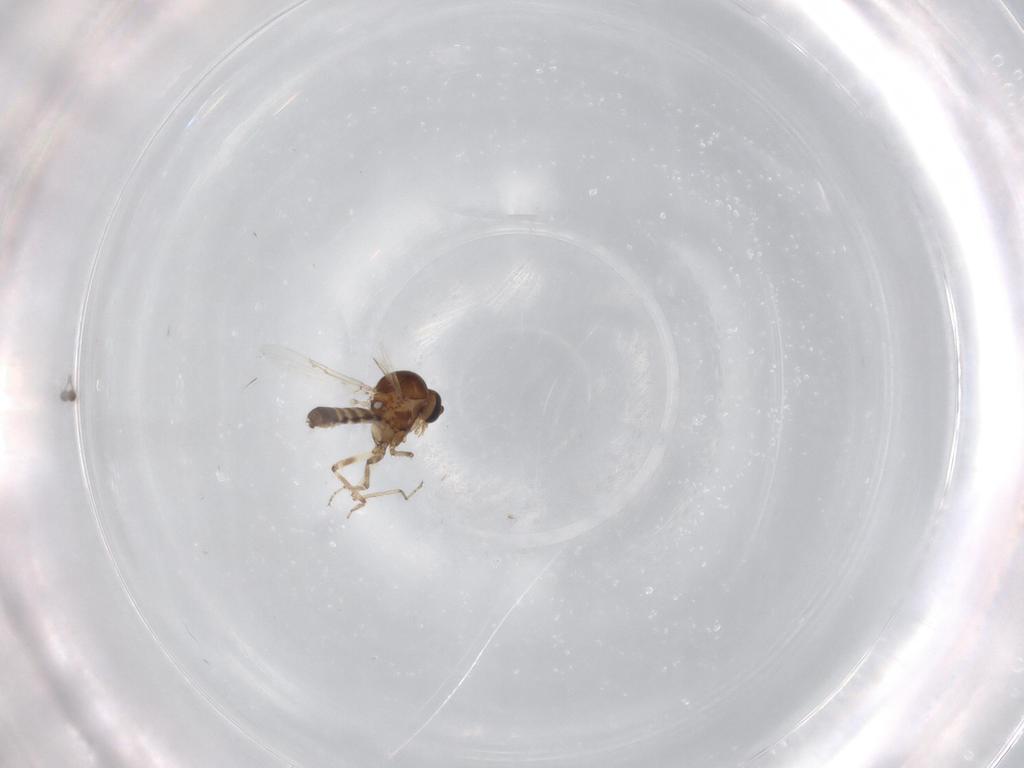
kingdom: Animalia
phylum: Arthropoda
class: Insecta
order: Diptera
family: Ceratopogonidae
